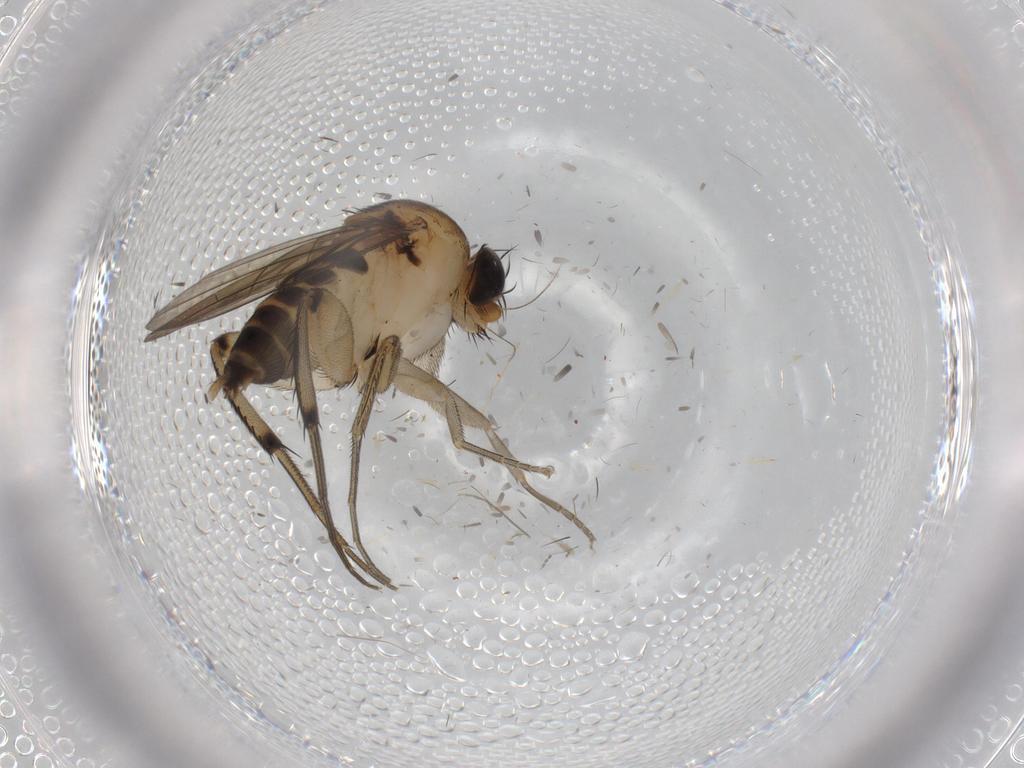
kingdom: Animalia
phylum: Arthropoda
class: Insecta
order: Diptera
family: Phoridae
